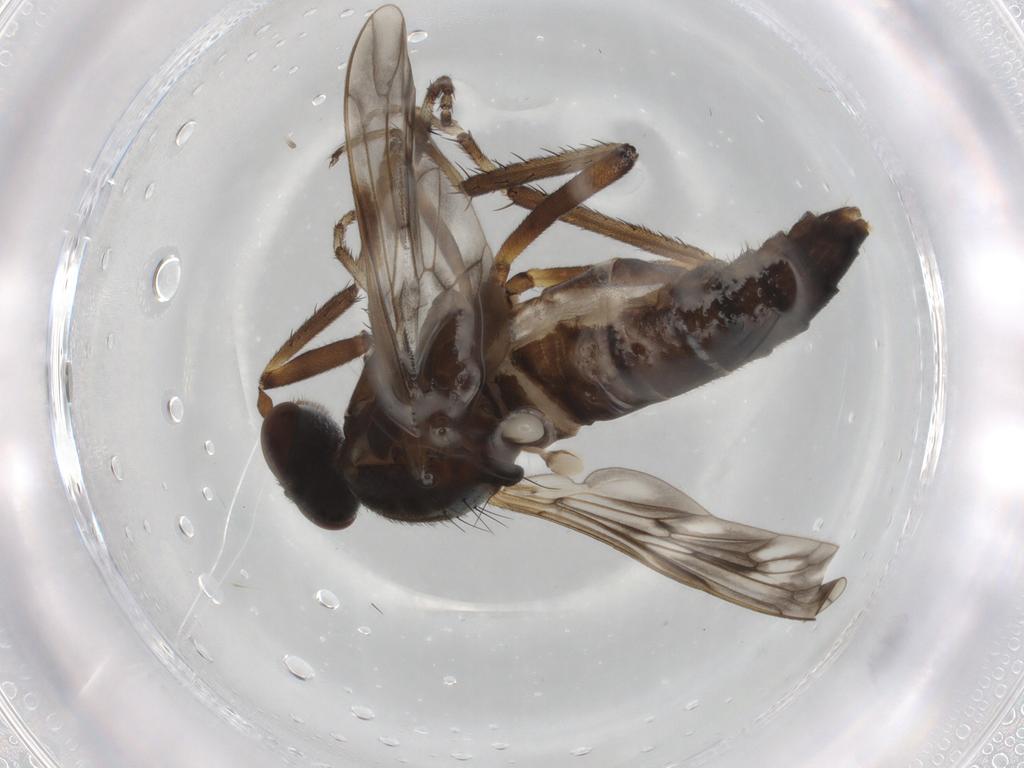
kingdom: Animalia
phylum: Arthropoda
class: Insecta
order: Diptera
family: Therevidae
